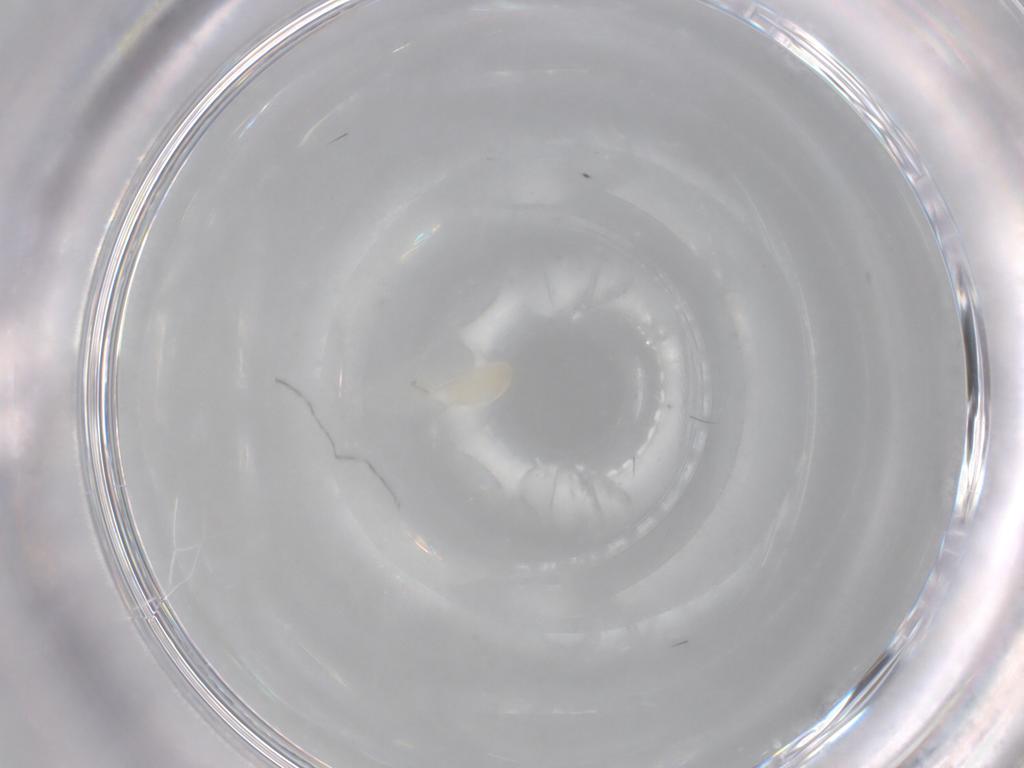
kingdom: Animalia
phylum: Arthropoda
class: Insecta
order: Hymenoptera
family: Ichneumonidae
